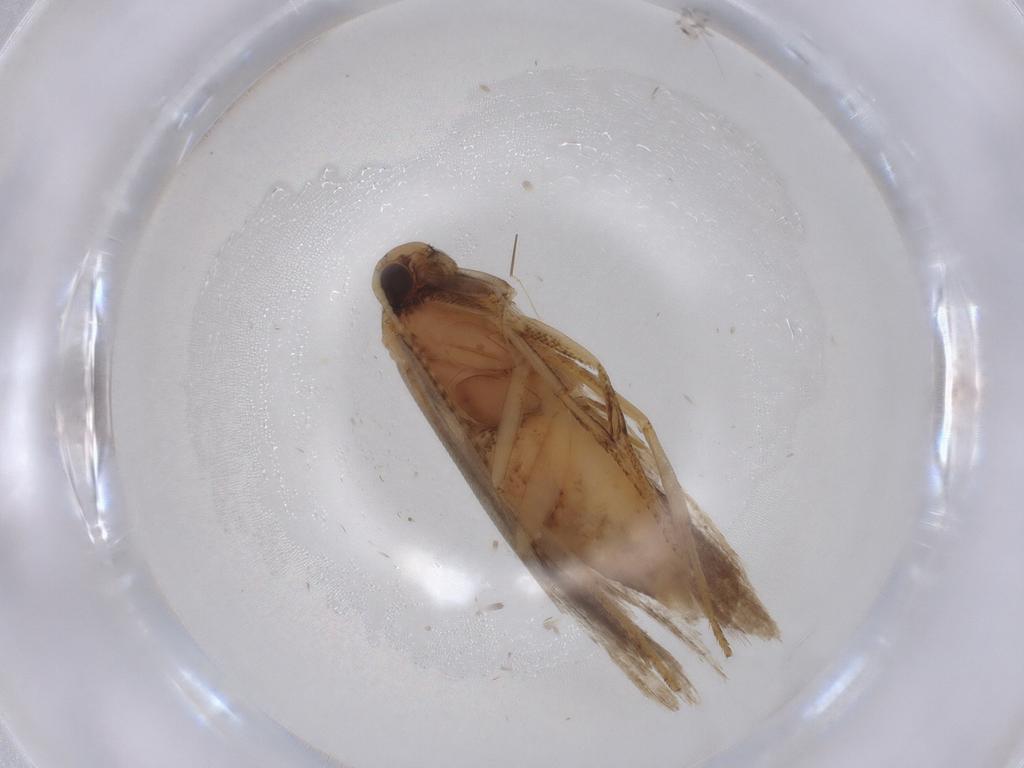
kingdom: Animalia
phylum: Arthropoda
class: Insecta
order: Lepidoptera
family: Gelechiidae
